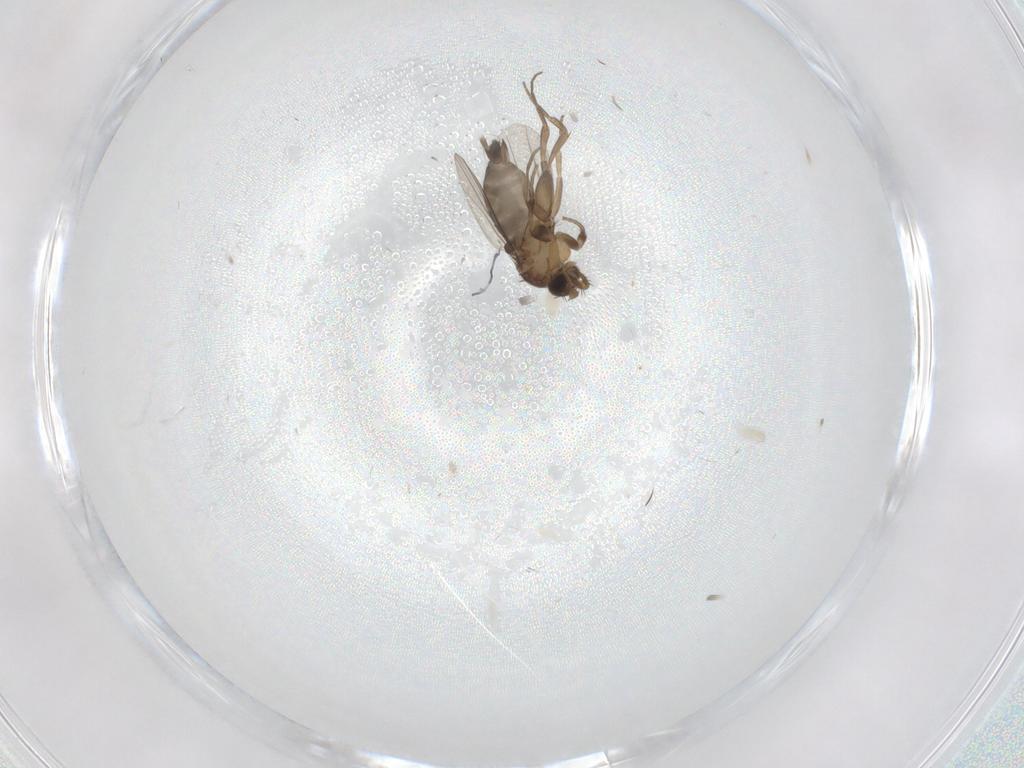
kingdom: Animalia
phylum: Arthropoda
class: Insecta
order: Diptera
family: Sciaridae
